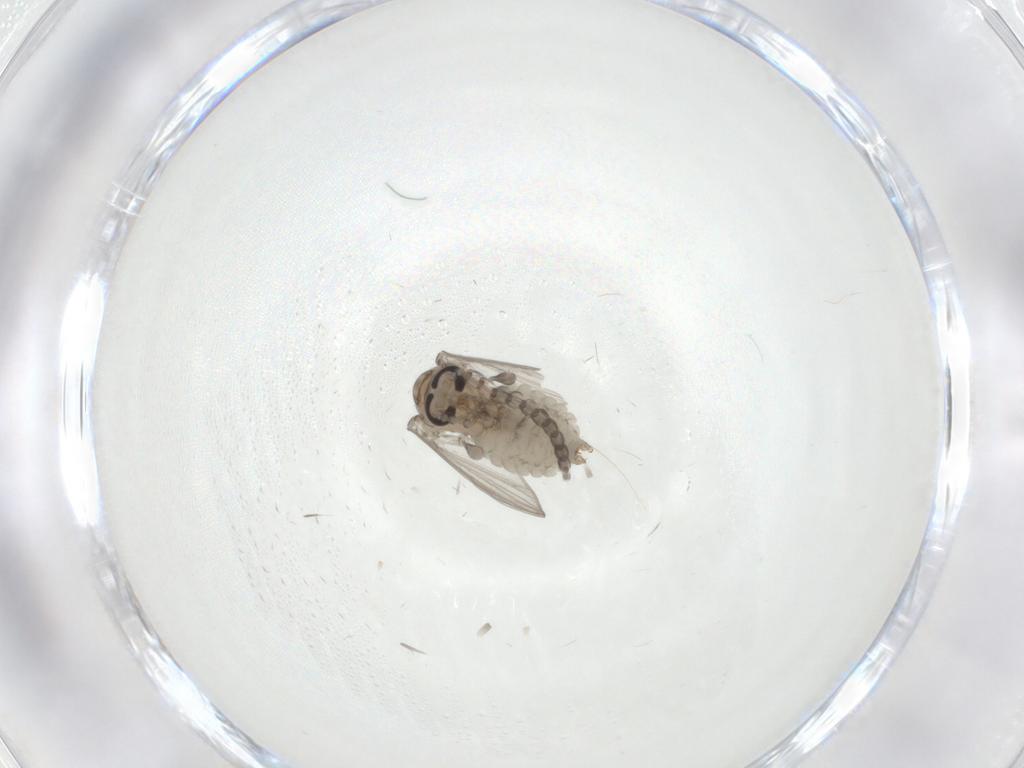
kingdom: Animalia
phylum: Arthropoda
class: Insecta
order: Diptera
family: Psychodidae
